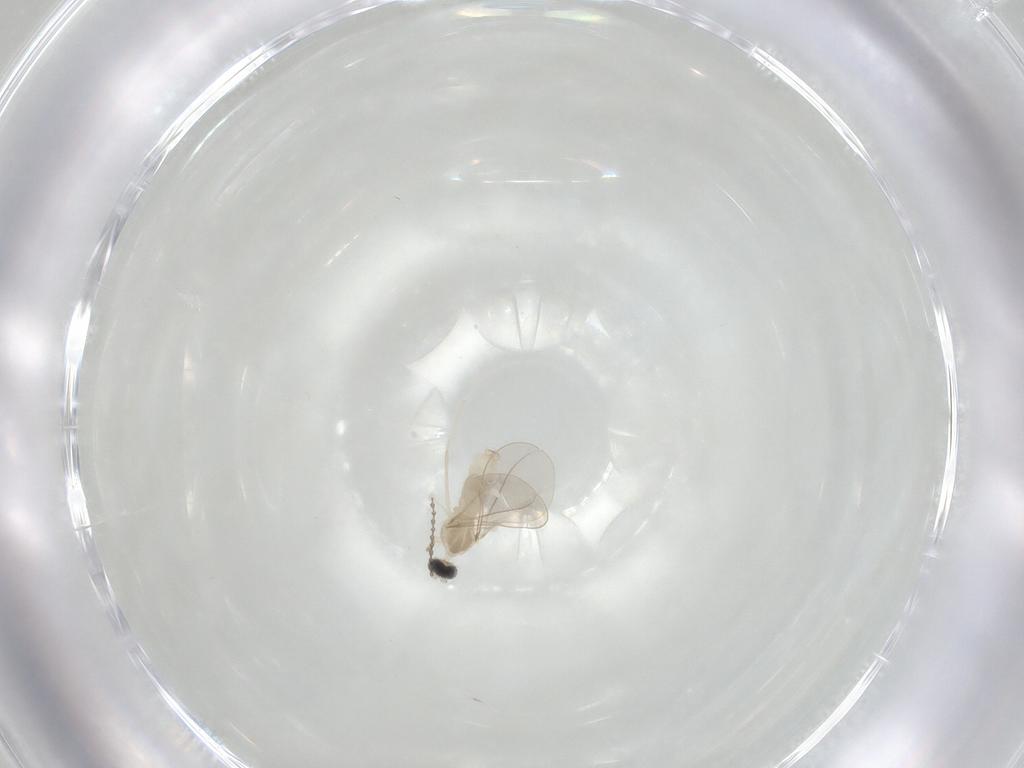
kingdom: Animalia
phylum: Arthropoda
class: Insecta
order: Diptera
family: Cecidomyiidae
